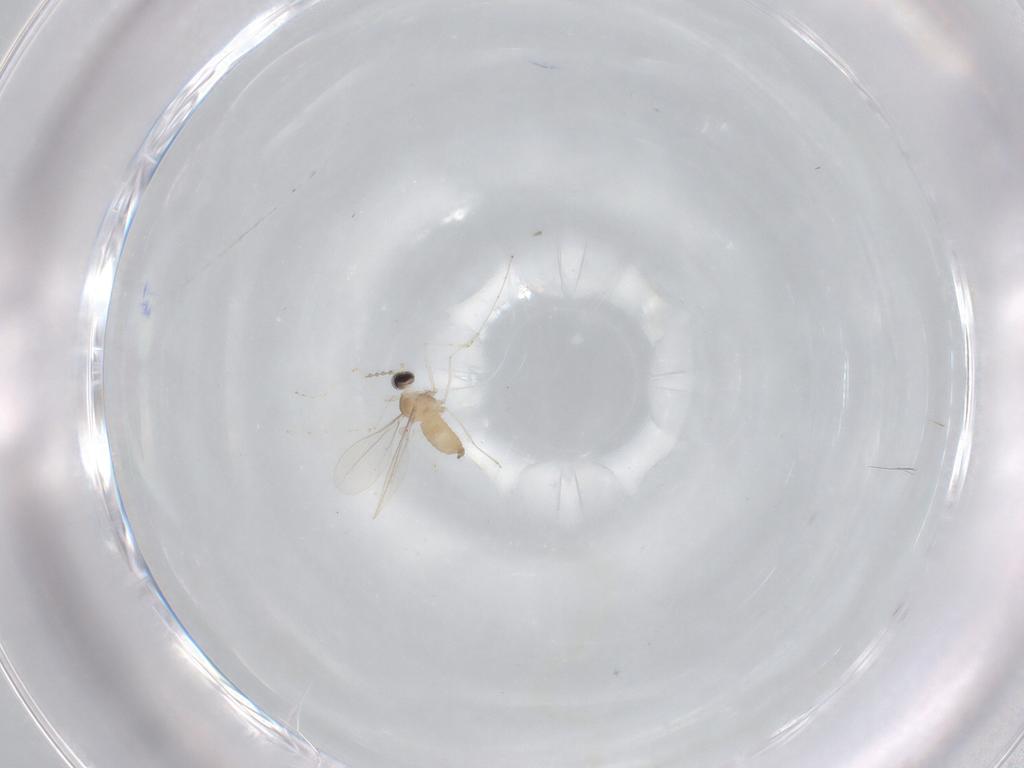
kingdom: Animalia
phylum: Arthropoda
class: Insecta
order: Diptera
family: Cecidomyiidae
